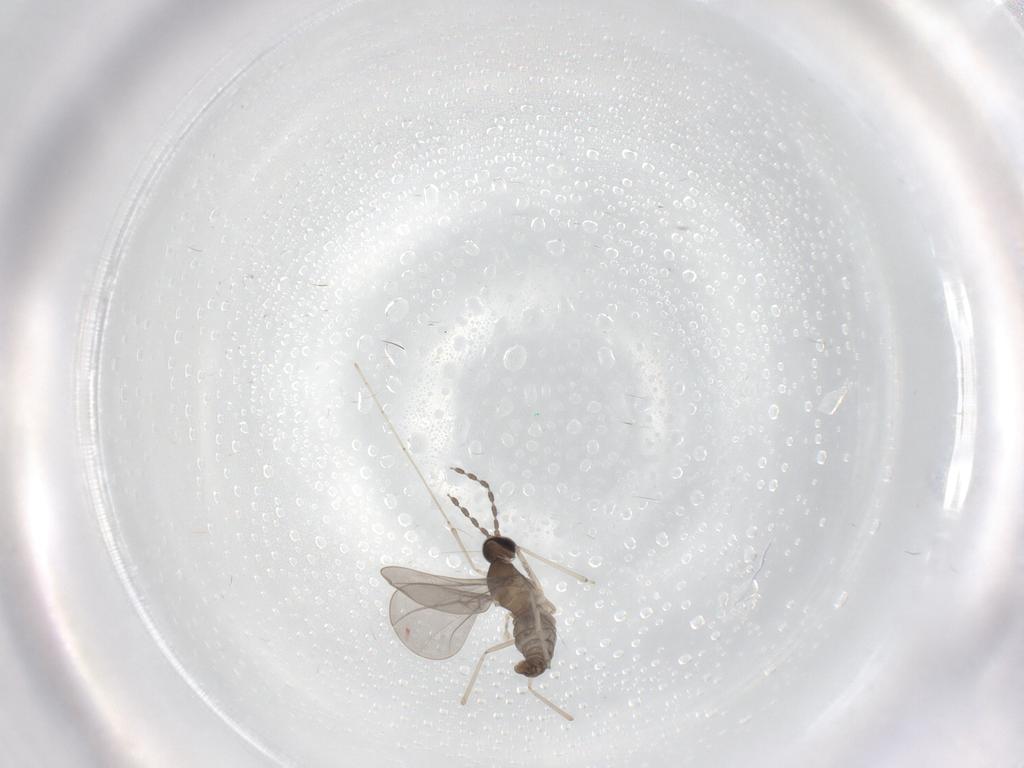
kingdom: Animalia
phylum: Arthropoda
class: Insecta
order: Diptera
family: Cecidomyiidae
